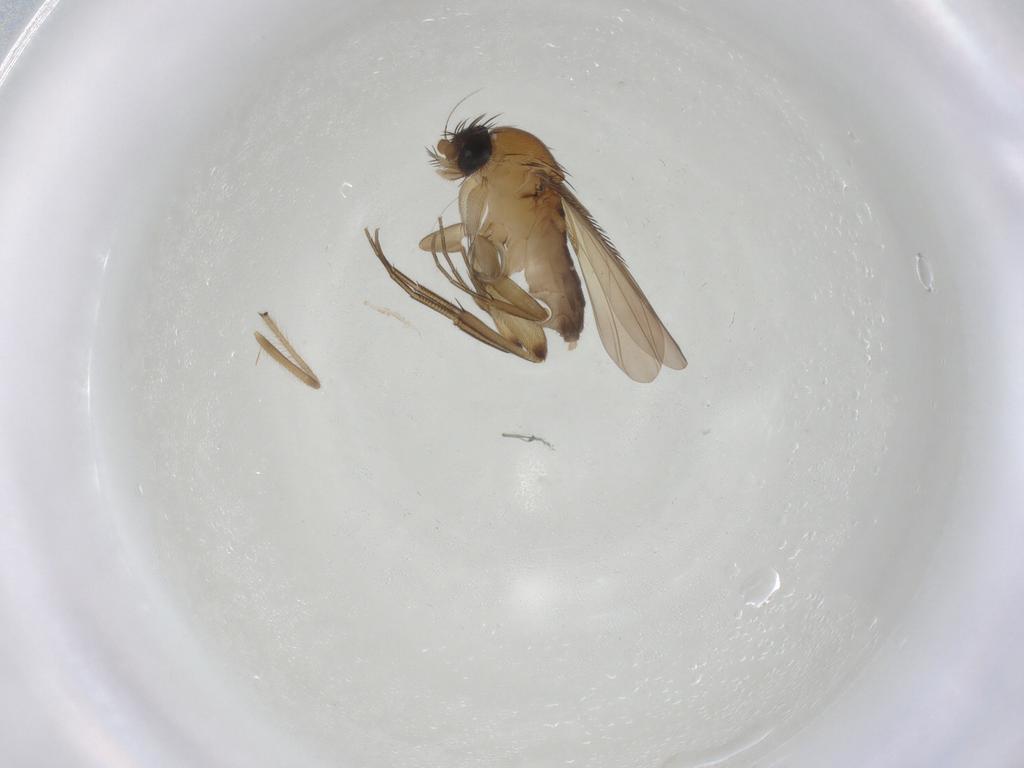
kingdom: Animalia
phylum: Arthropoda
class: Insecta
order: Diptera
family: Phoridae
